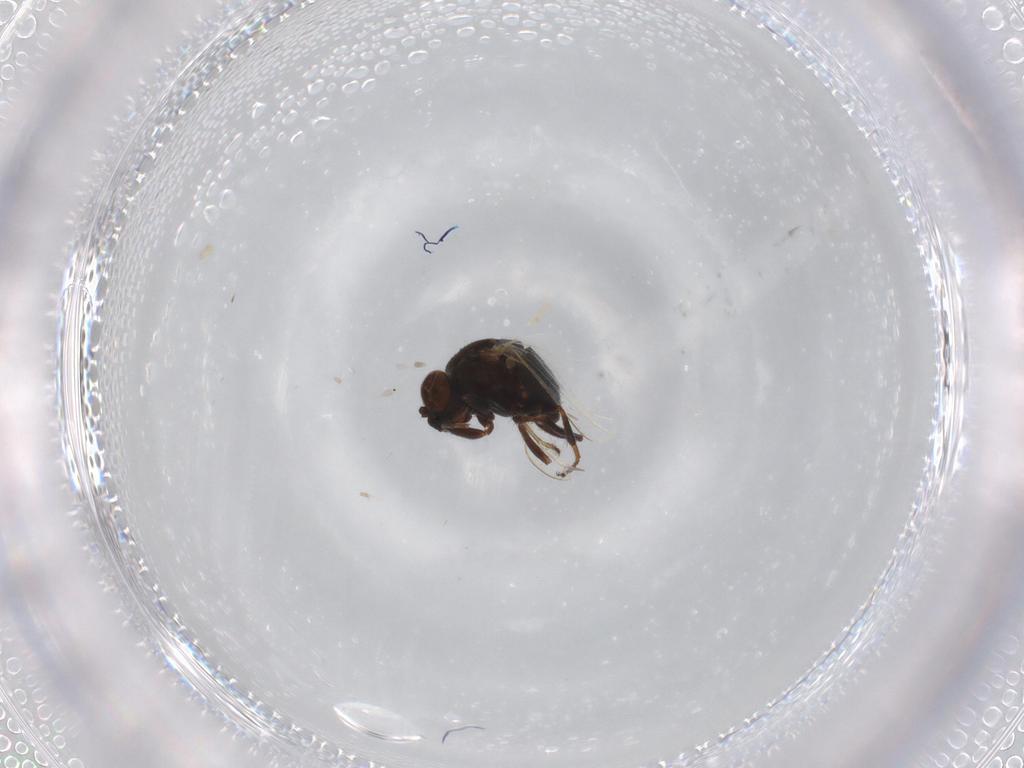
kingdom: Animalia
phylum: Arthropoda
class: Insecta
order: Diptera
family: Ephydridae
